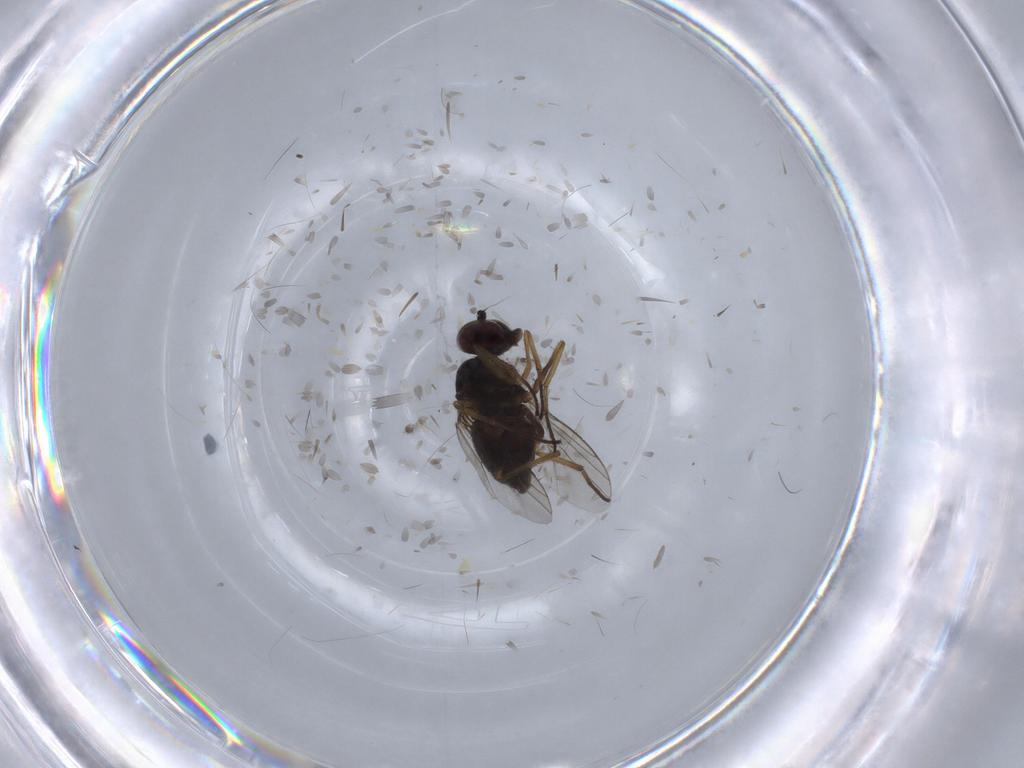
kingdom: Animalia
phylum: Arthropoda
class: Insecta
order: Diptera
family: Dolichopodidae
